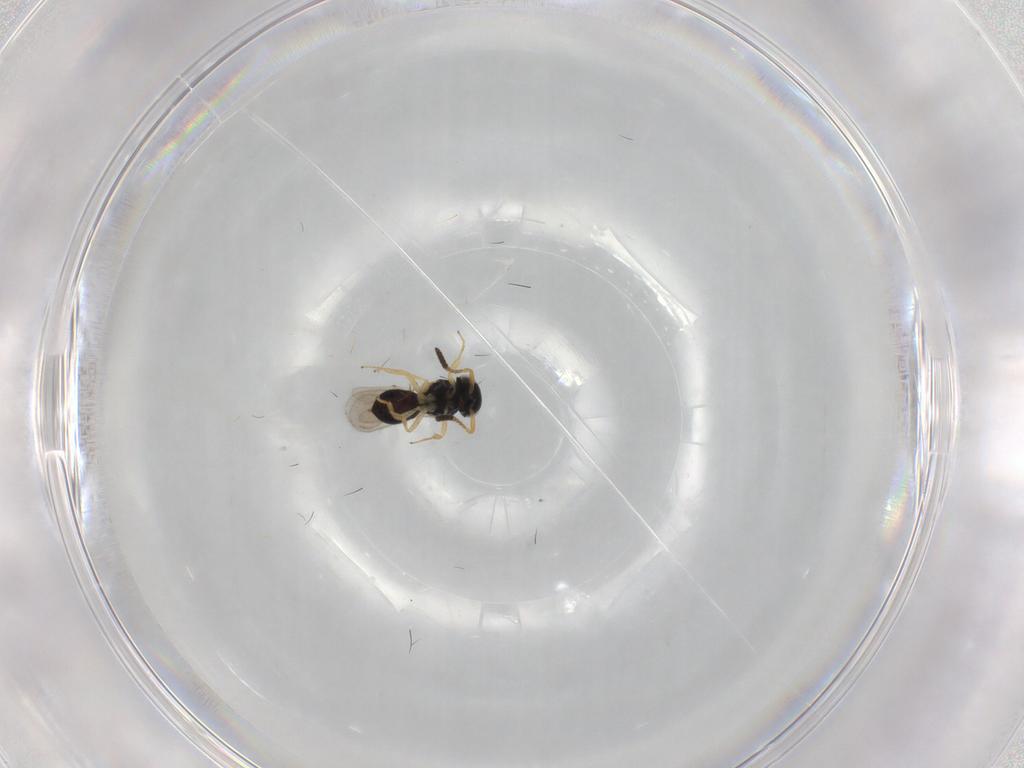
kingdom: Animalia
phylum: Arthropoda
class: Insecta
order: Hymenoptera
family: Scelionidae
